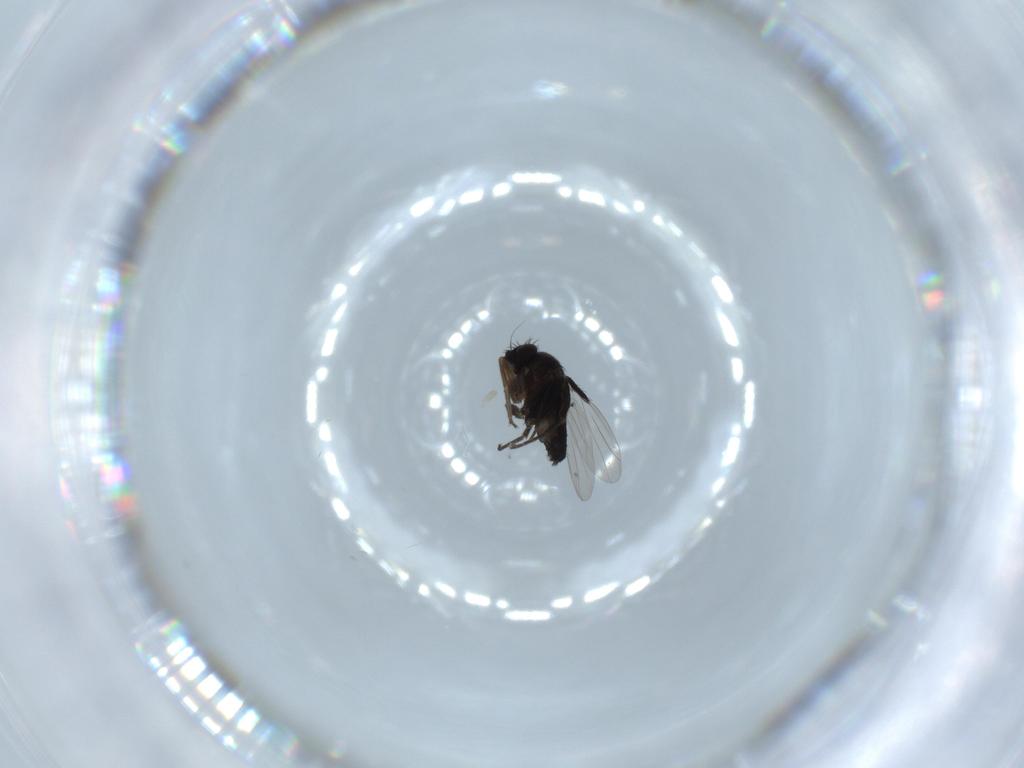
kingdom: Animalia
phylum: Arthropoda
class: Insecta
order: Diptera
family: Phoridae
